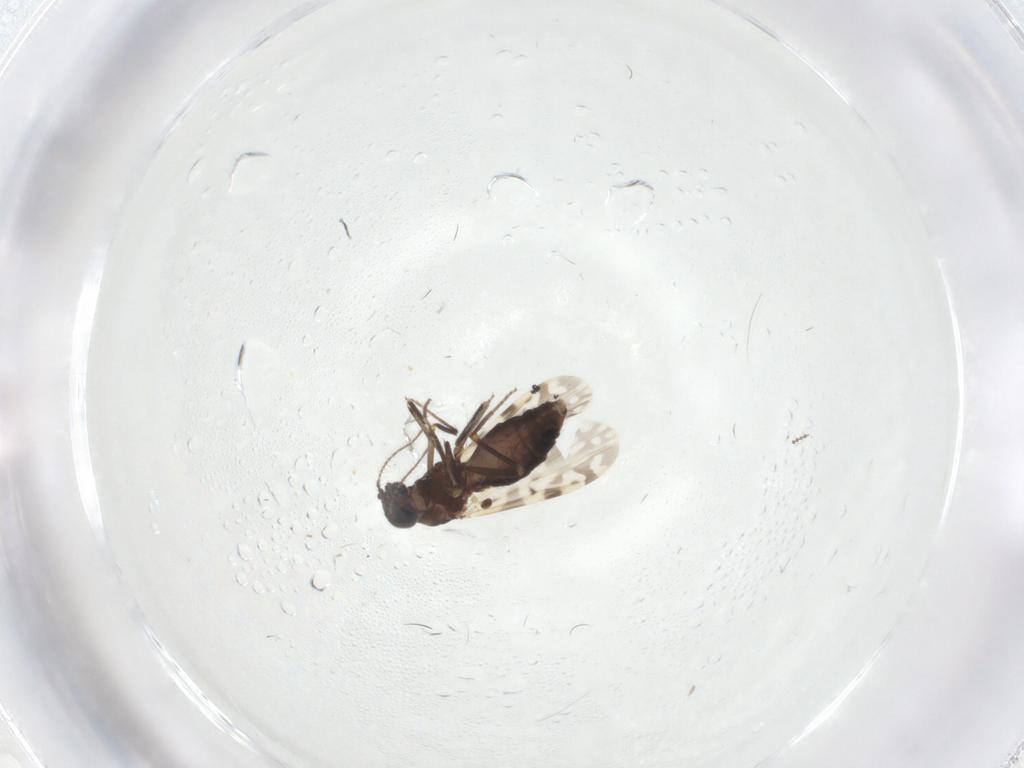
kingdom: Animalia
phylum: Arthropoda
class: Insecta
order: Diptera
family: Ceratopogonidae
